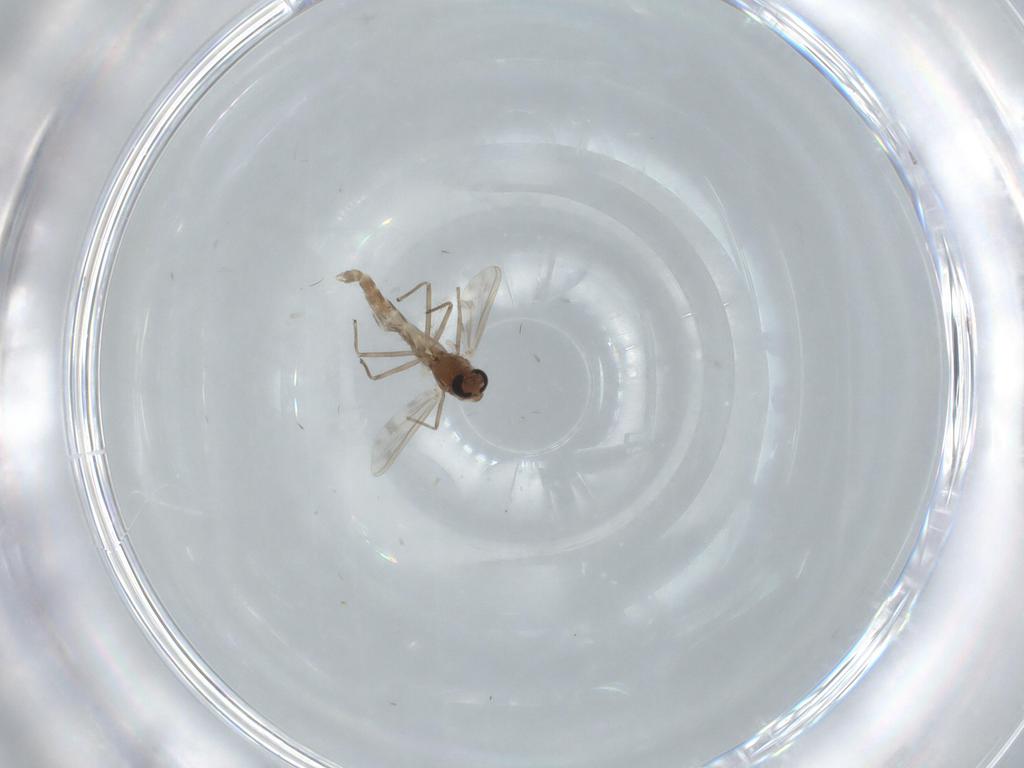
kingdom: Animalia
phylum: Arthropoda
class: Insecta
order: Diptera
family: Chironomidae
